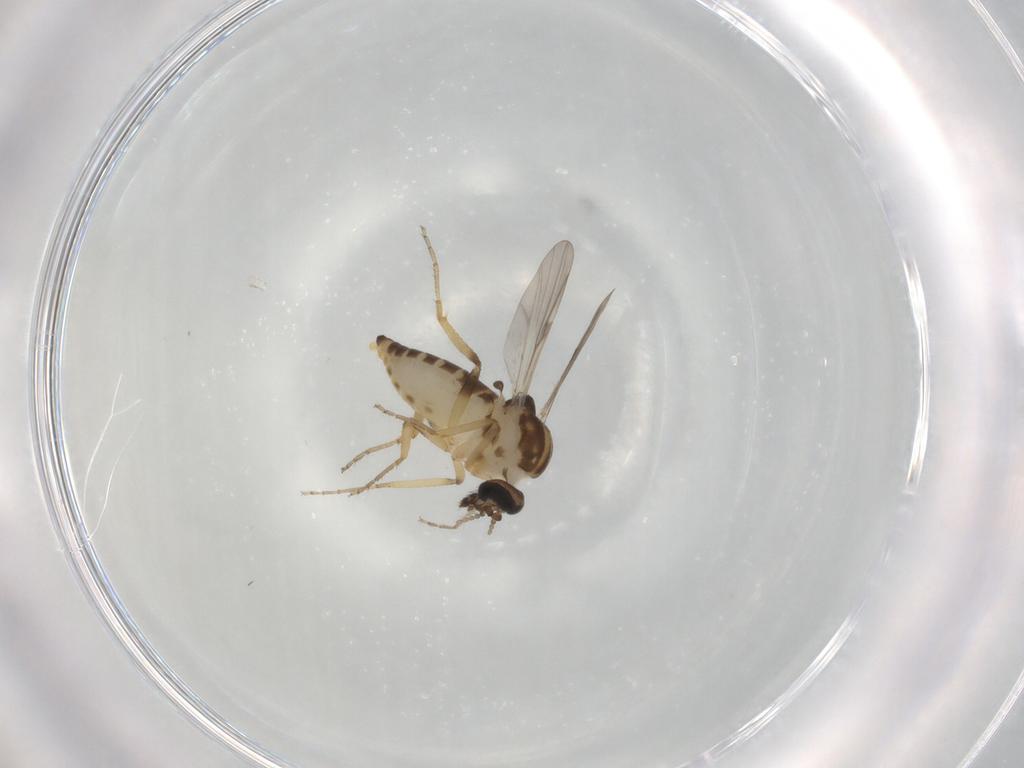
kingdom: Animalia
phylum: Arthropoda
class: Insecta
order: Diptera
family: Ceratopogonidae
